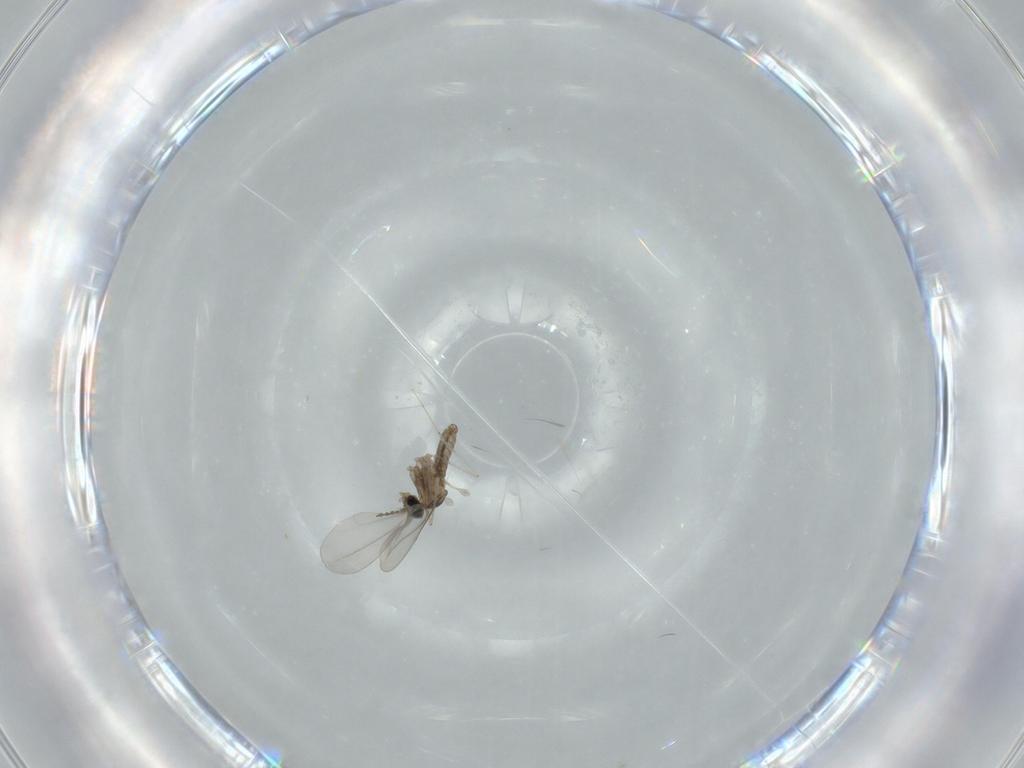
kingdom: Animalia
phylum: Arthropoda
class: Insecta
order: Diptera
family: Cecidomyiidae
